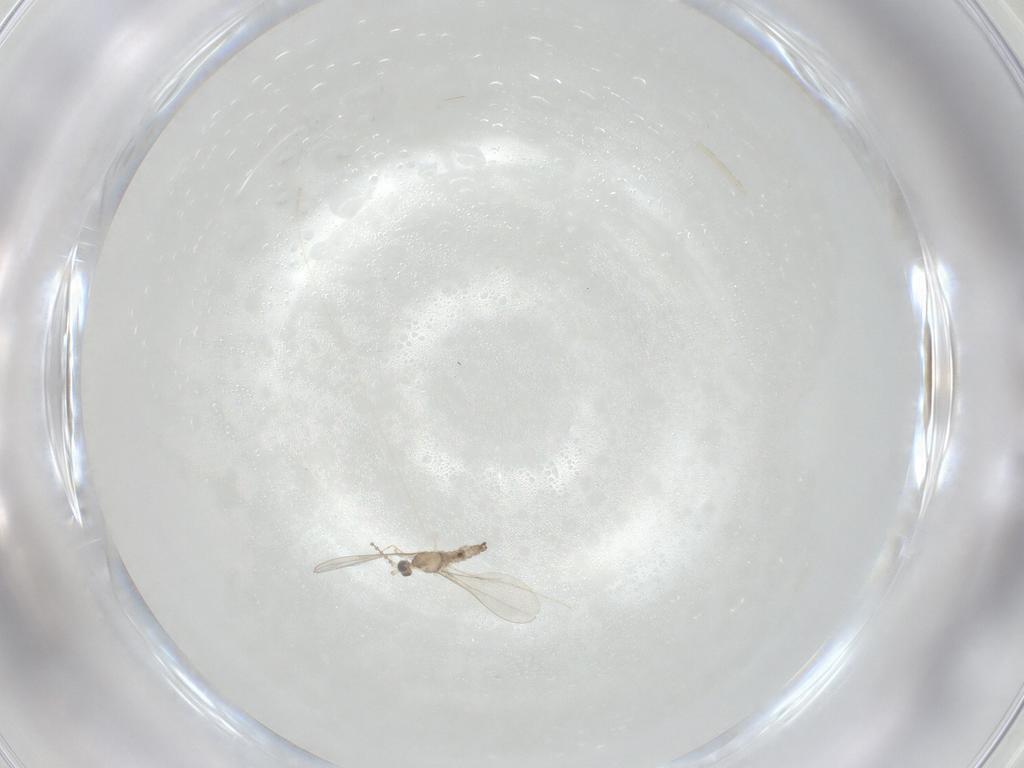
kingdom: Animalia
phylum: Arthropoda
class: Insecta
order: Diptera
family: Cecidomyiidae
